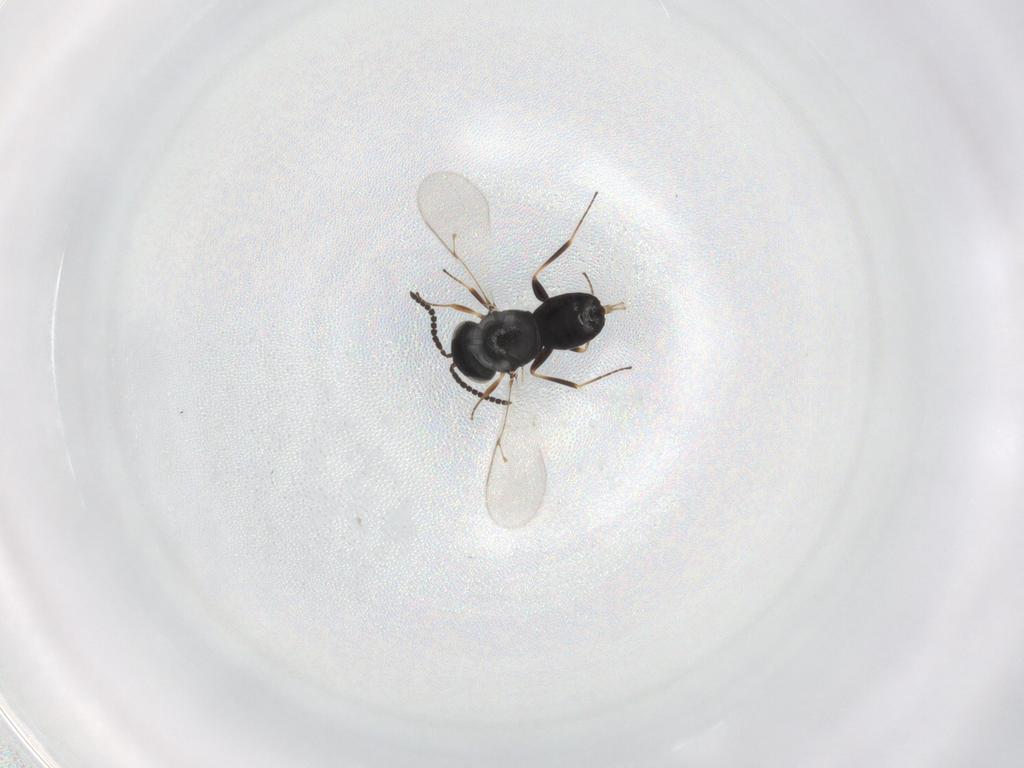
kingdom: Animalia
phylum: Arthropoda
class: Insecta
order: Hymenoptera
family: Scelionidae
